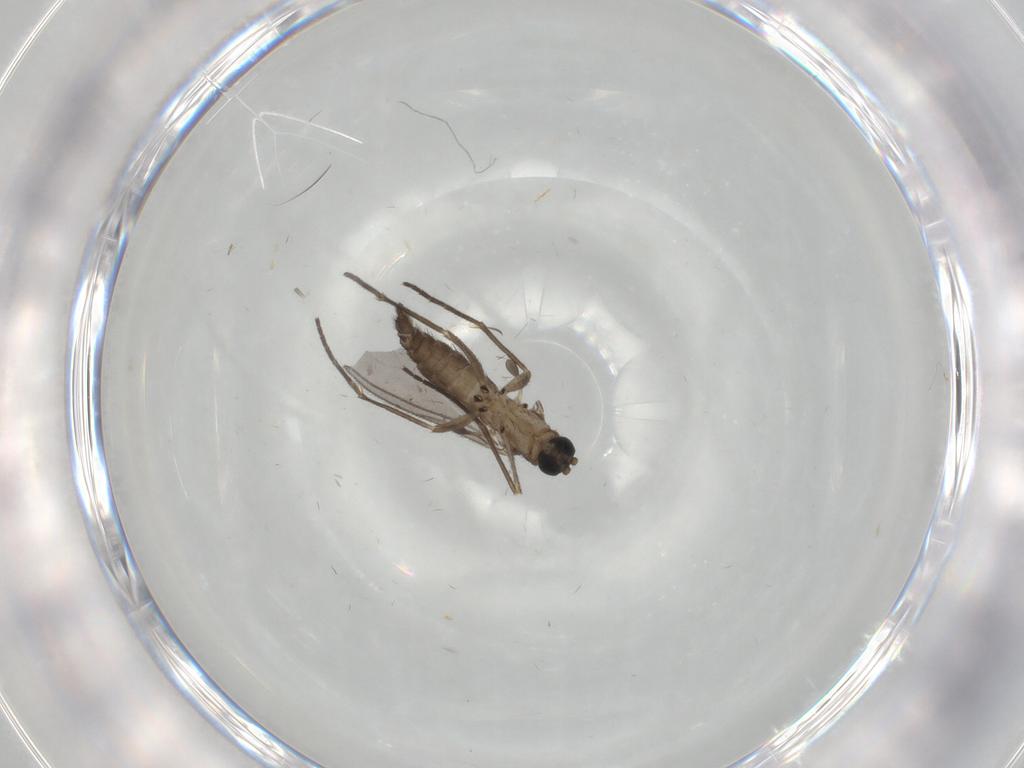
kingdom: Animalia
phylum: Arthropoda
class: Insecta
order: Diptera
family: Sciaridae
